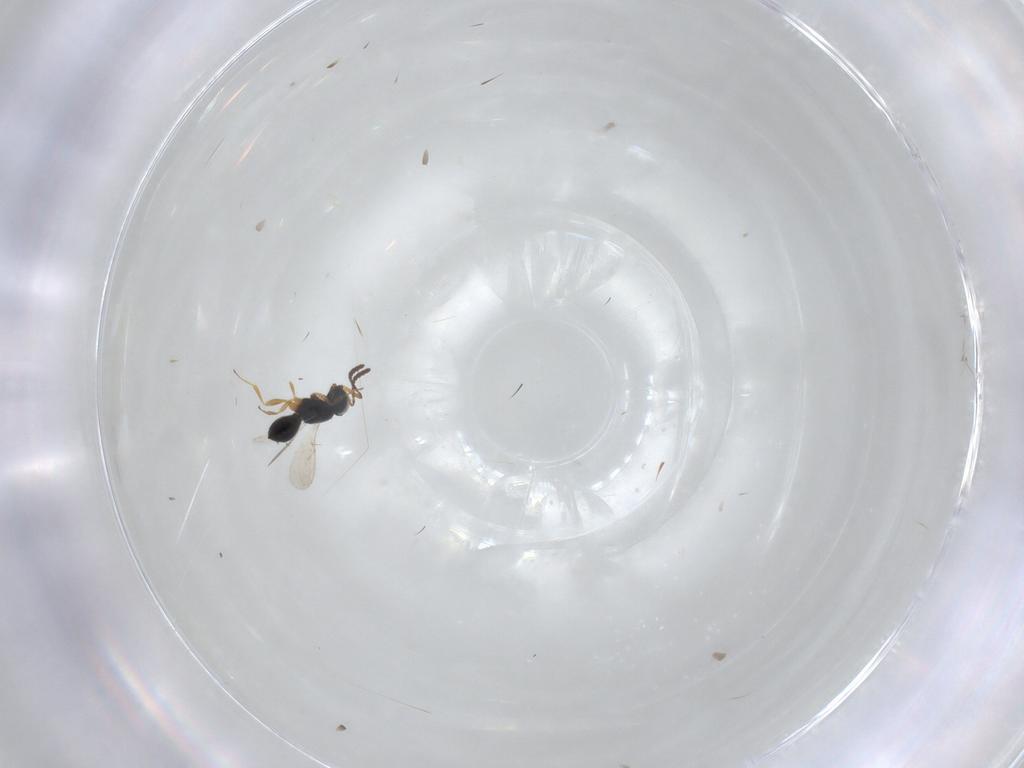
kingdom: Animalia
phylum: Arthropoda
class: Insecta
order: Hymenoptera
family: Scelionidae
